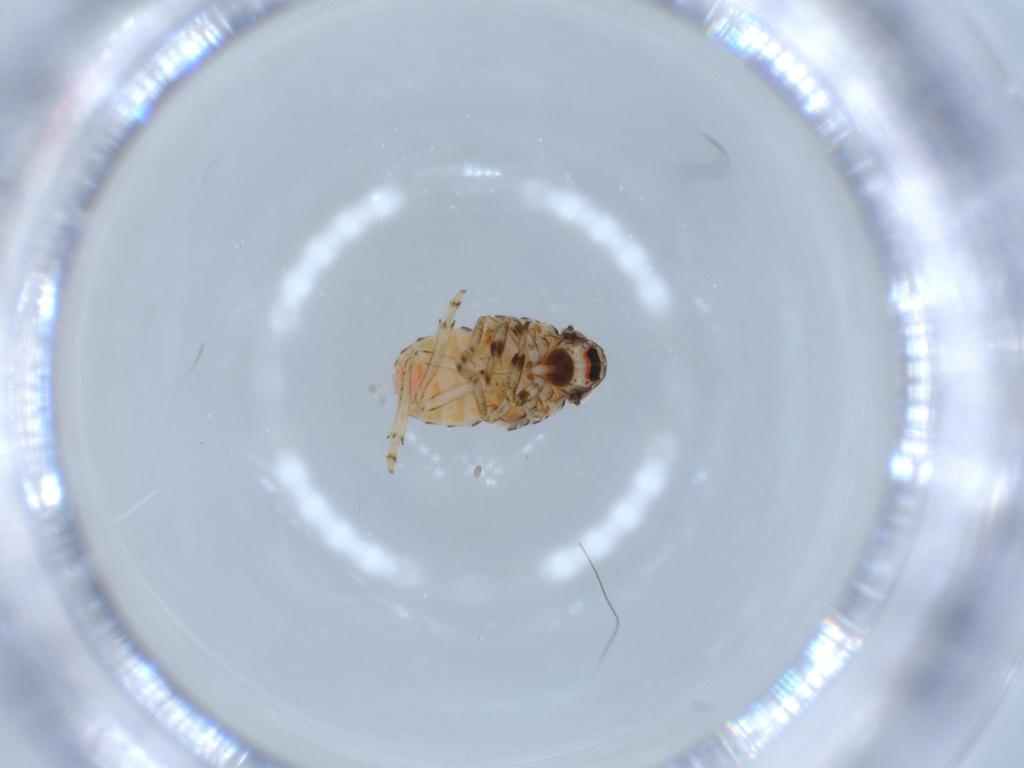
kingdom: Animalia
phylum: Arthropoda
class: Insecta
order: Hemiptera
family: Issidae
